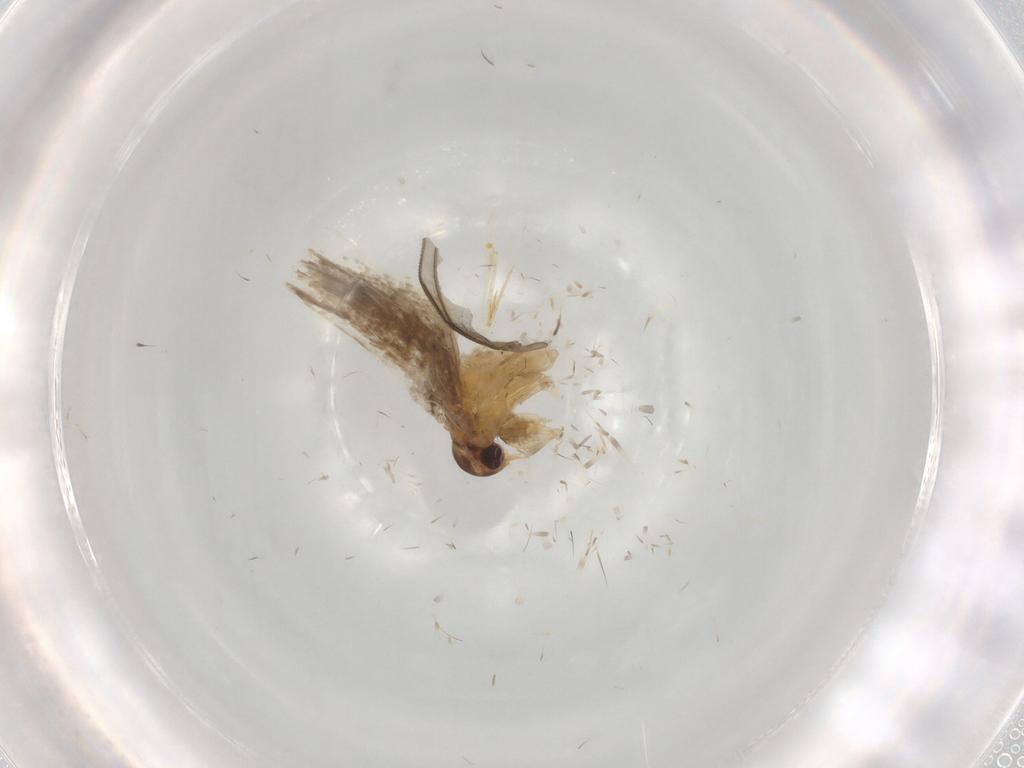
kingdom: Animalia
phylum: Arthropoda
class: Insecta
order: Lepidoptera
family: Oecophoridae
